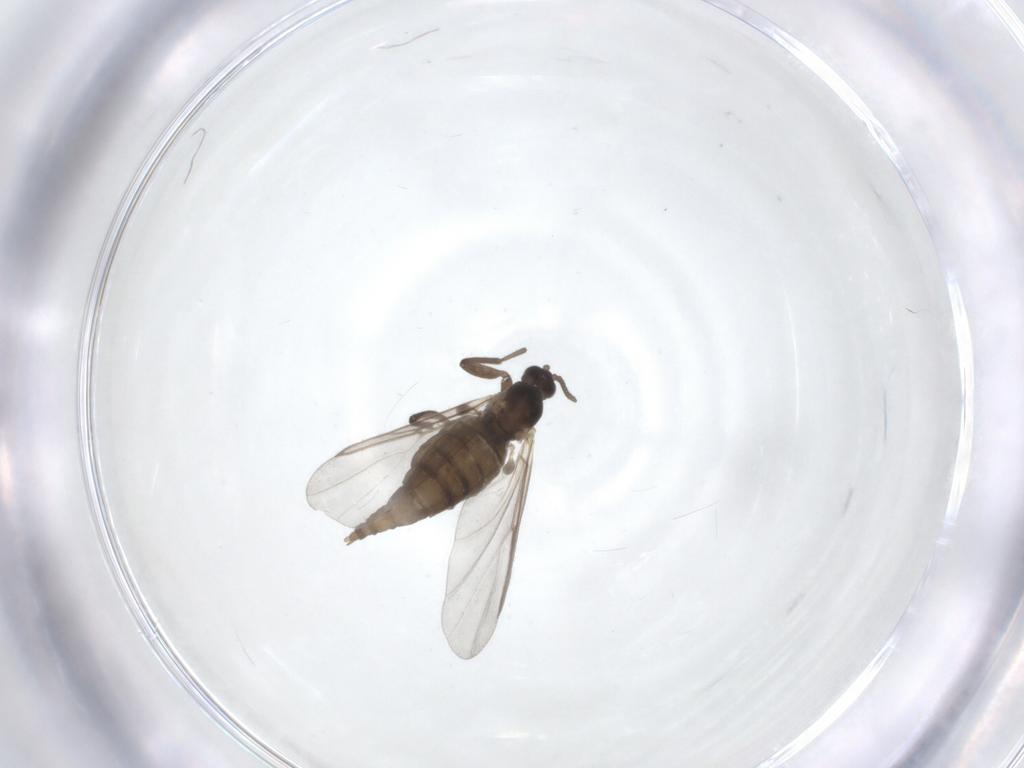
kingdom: Animalia
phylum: Arthropoda
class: Insecta
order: Diptera
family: Cecidomyiidae
